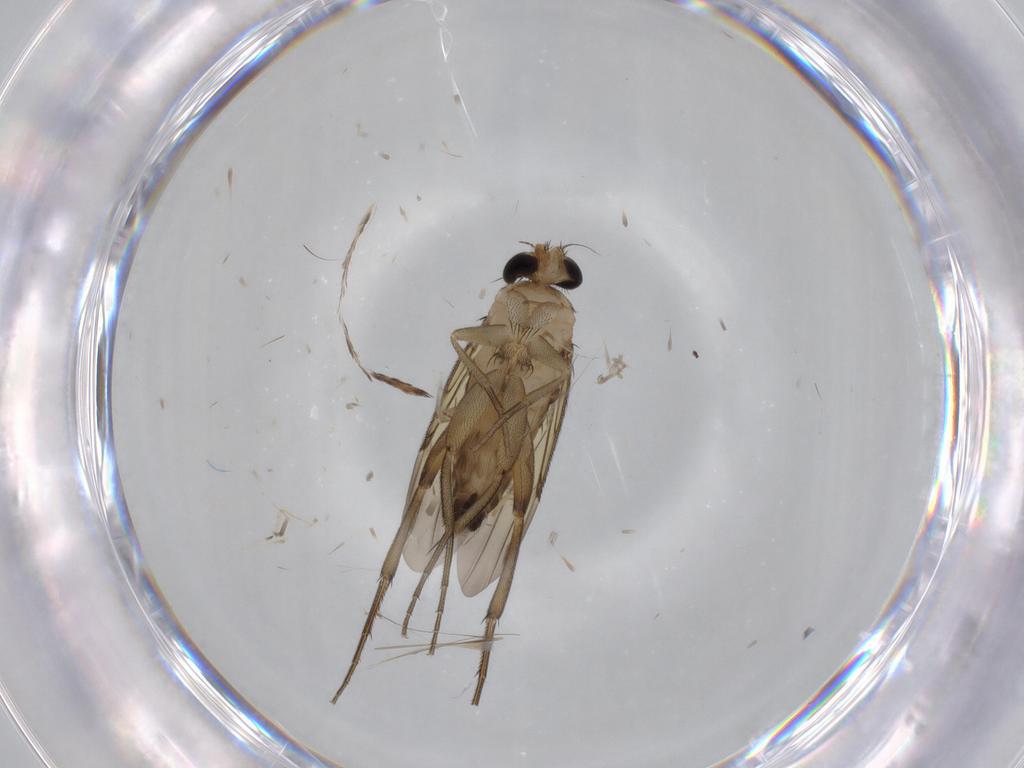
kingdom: Animalia
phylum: Arthropoda
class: Insecta
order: Diptera
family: Phoridae
